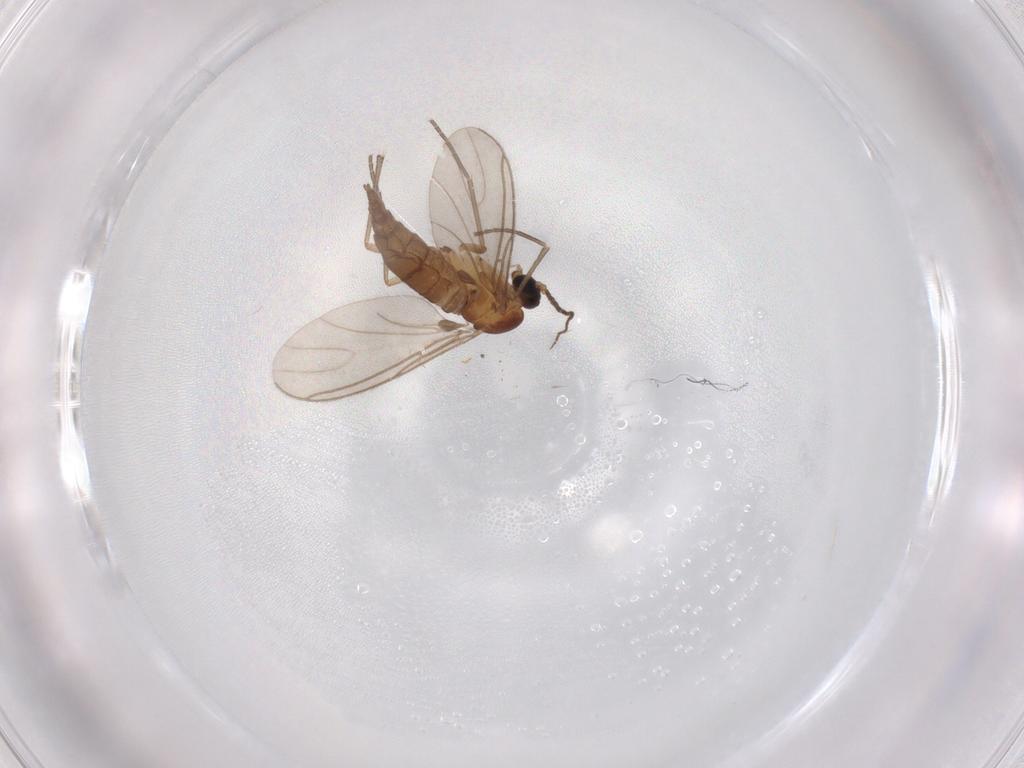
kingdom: Animalia
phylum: Arthropoda
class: Insecta
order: Diptera
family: Sciaridae
